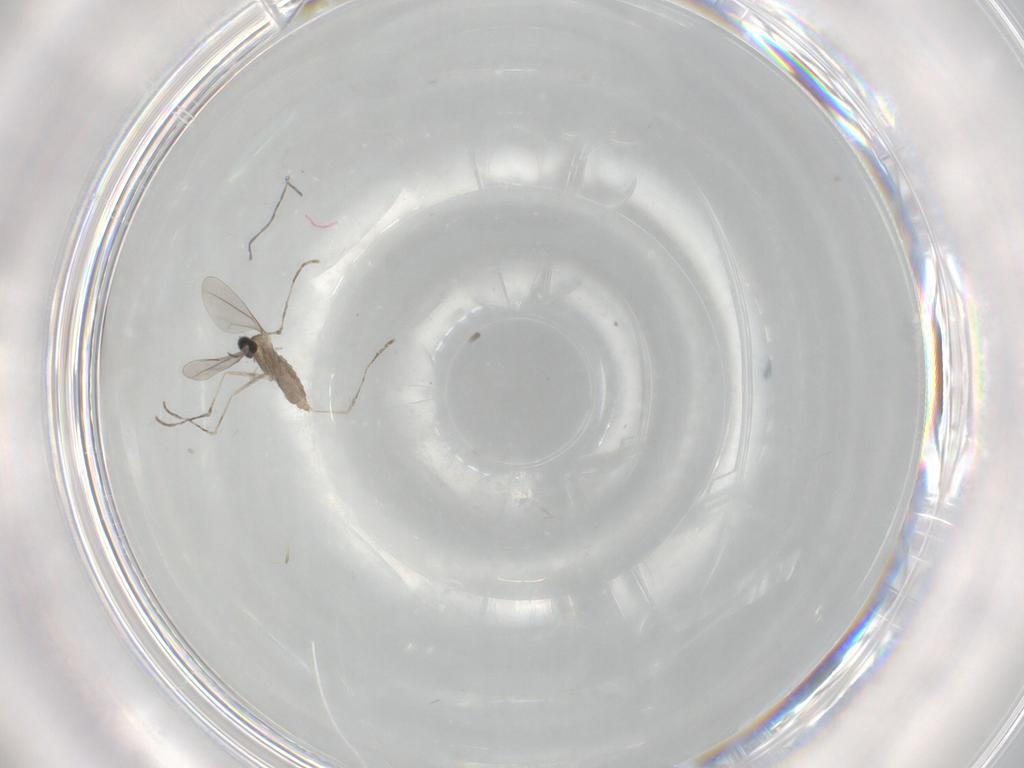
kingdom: Animalia
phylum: Arthropoda
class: Insecta
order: Diptera
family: Cecidomyiidae
